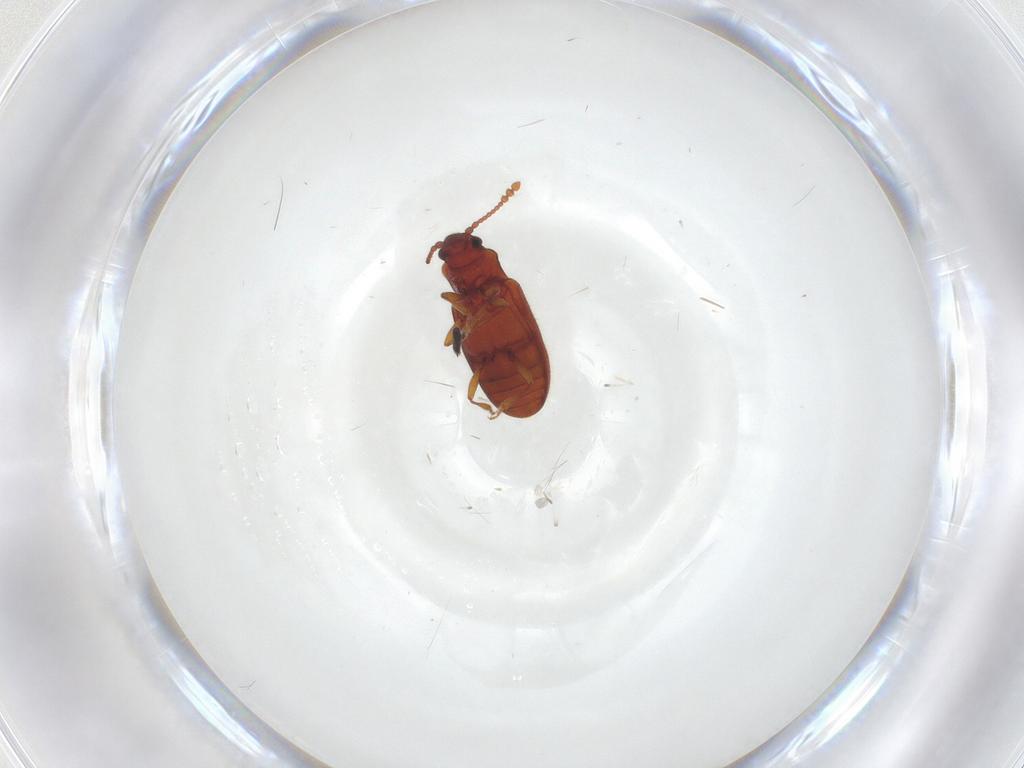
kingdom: Animalia
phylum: Arthropoda
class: Insecta
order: Coleoptera
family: Cryptophagidae
